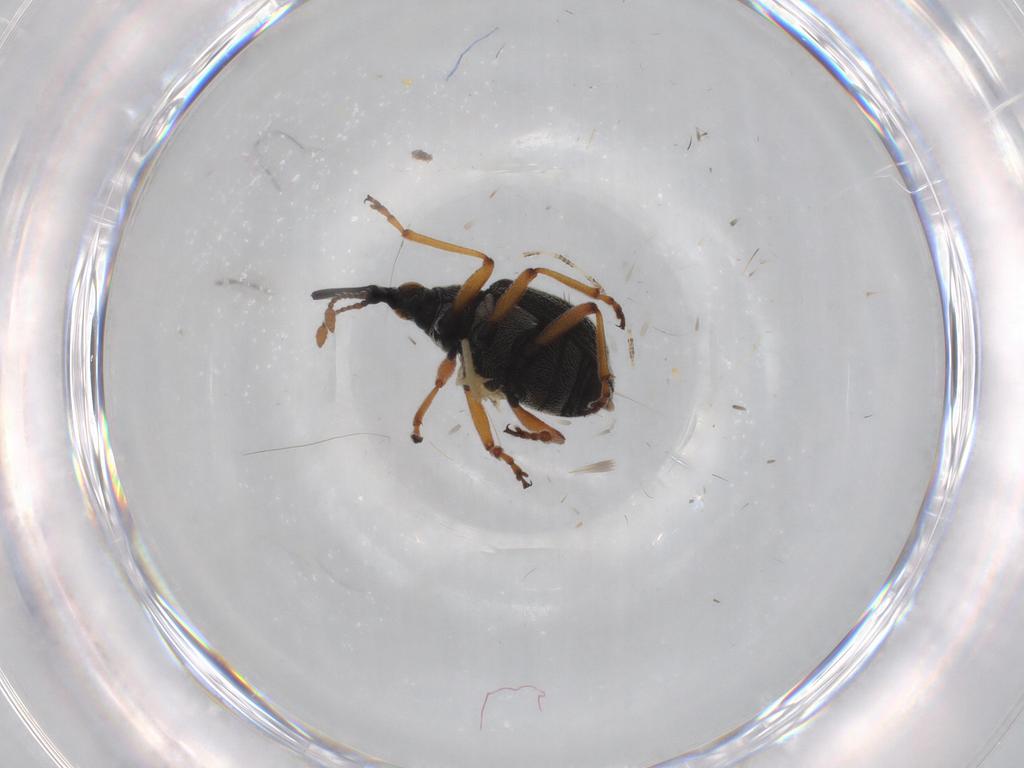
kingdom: Animalia
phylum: Arthropoda
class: Insecta
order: Coleoptera
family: Brentidae
